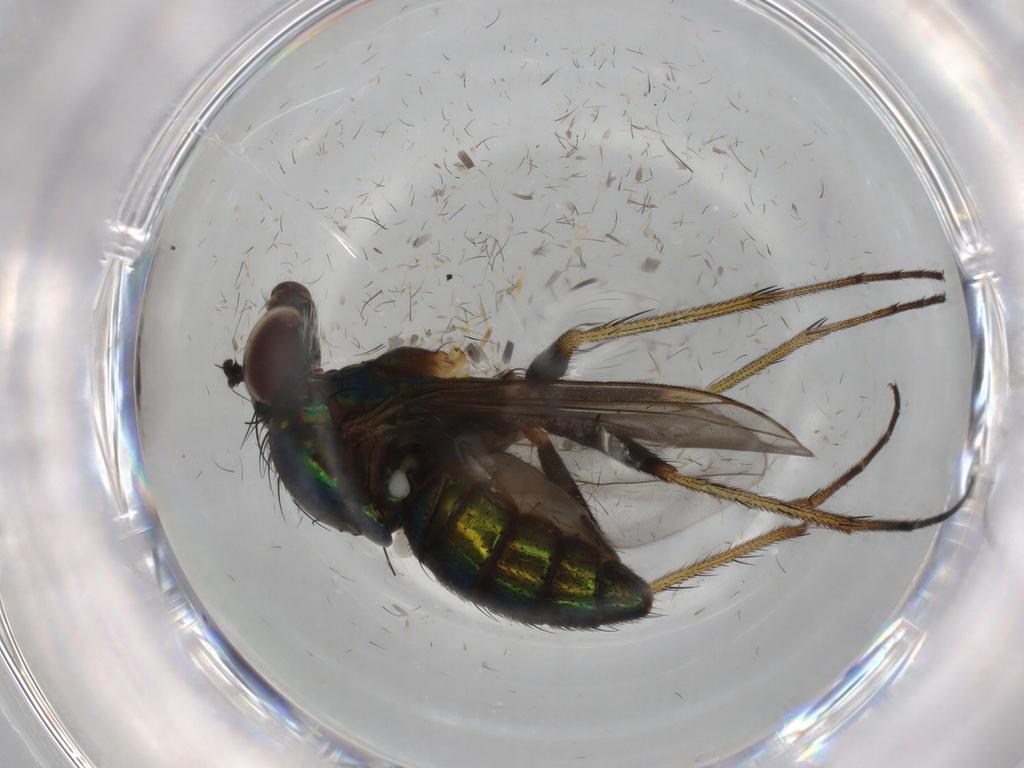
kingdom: Animalia
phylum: Arthropoda
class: Insecta
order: Diptera
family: Dolichopodidae
